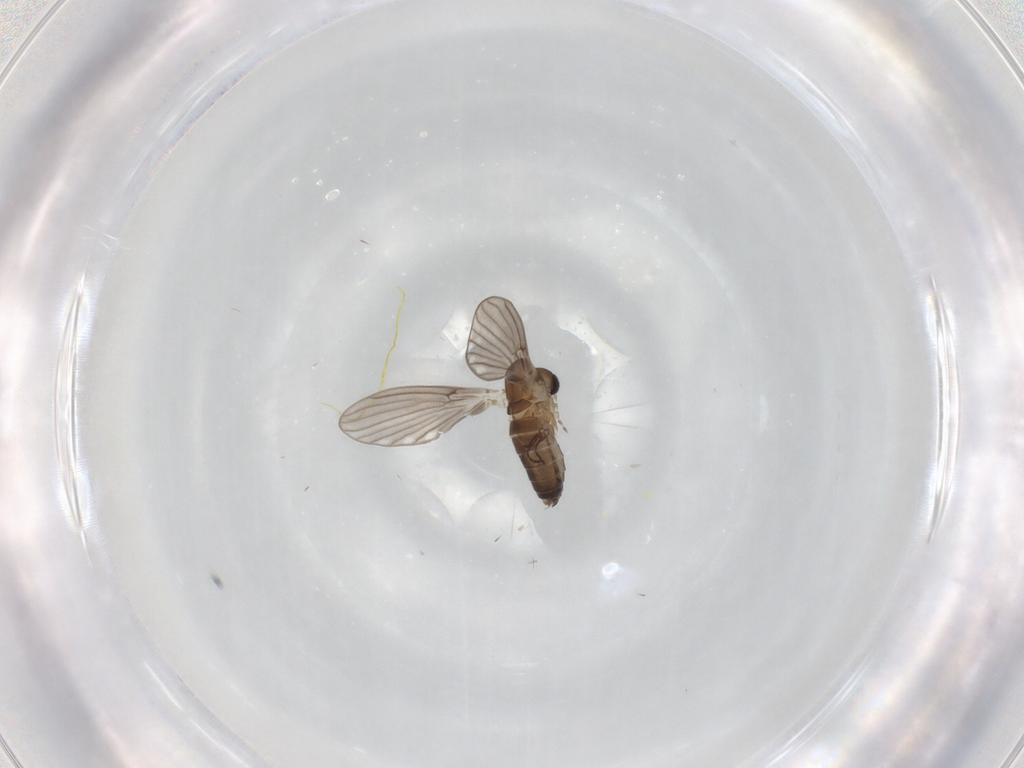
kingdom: Animalia
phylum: Arthropoda
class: Insecta
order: Diptera
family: Psychodidae
